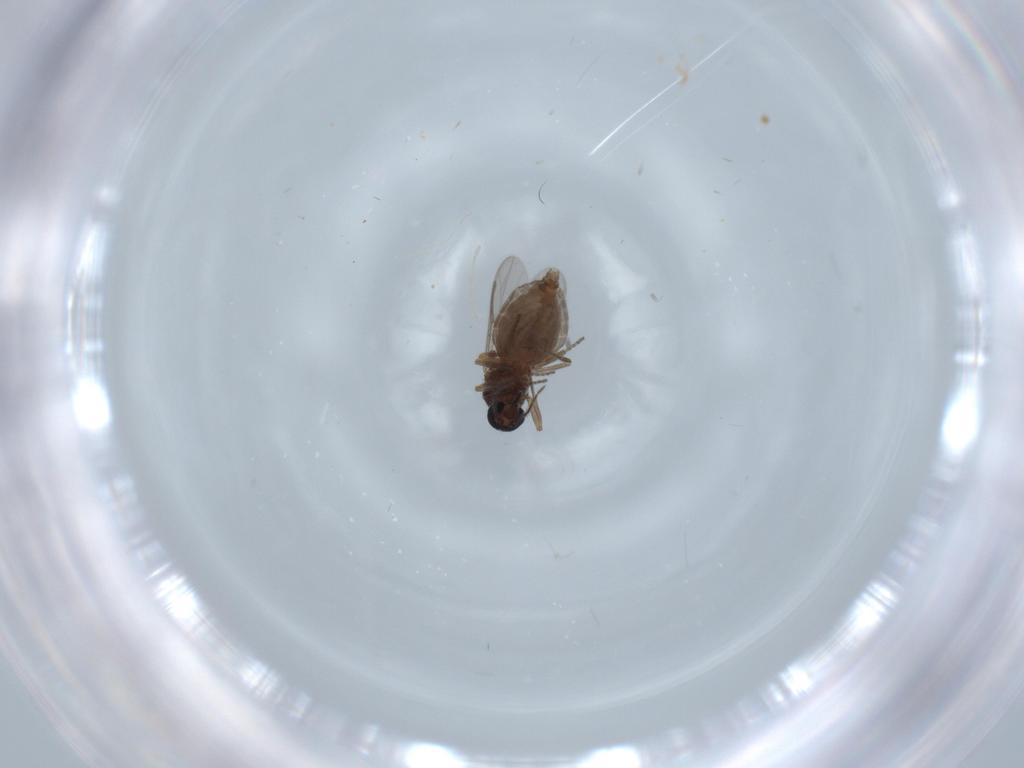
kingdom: Animalia
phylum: Arthropoda
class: Insecta
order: Diptera
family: Ceratopogonidae
